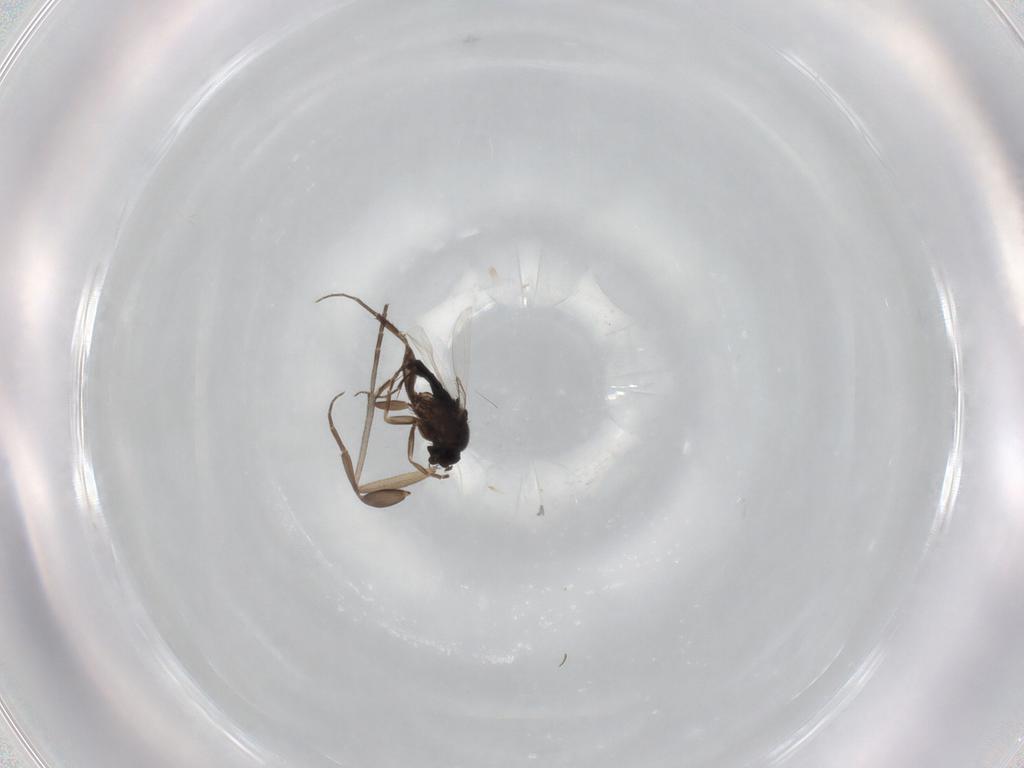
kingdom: Animalia
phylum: Arthropoda
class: Insecta
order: Diptera
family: Phoridae
